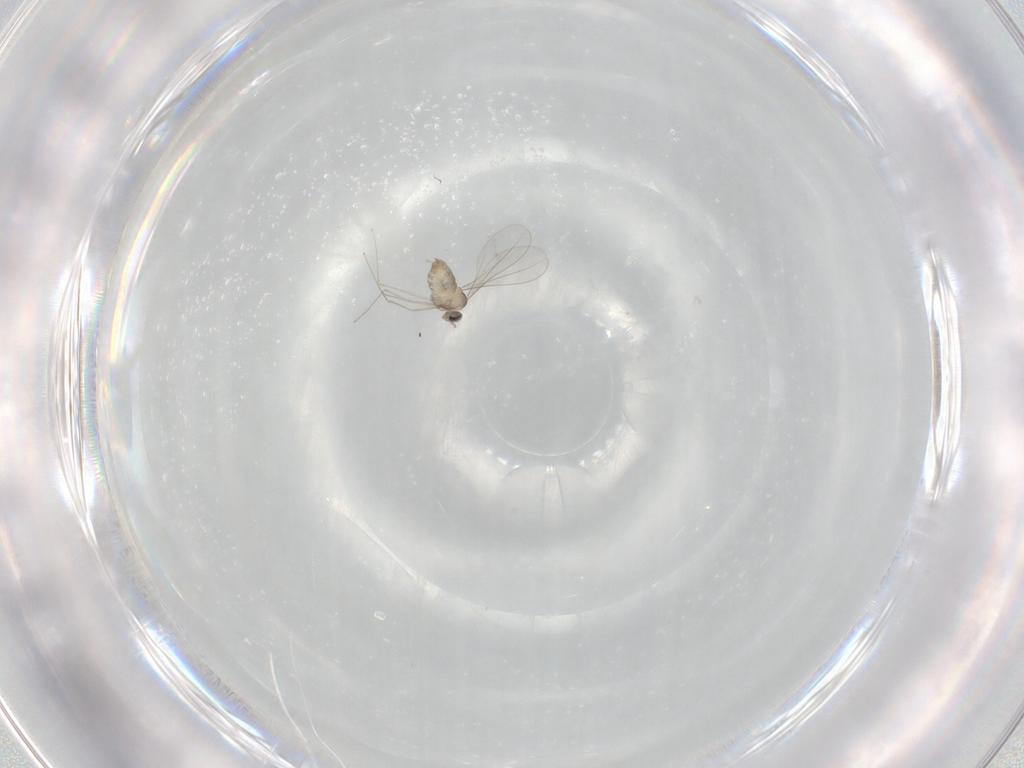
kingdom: Animalia
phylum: Arthropoda
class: Insecta
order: Diptera
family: Cecidomyiidae
